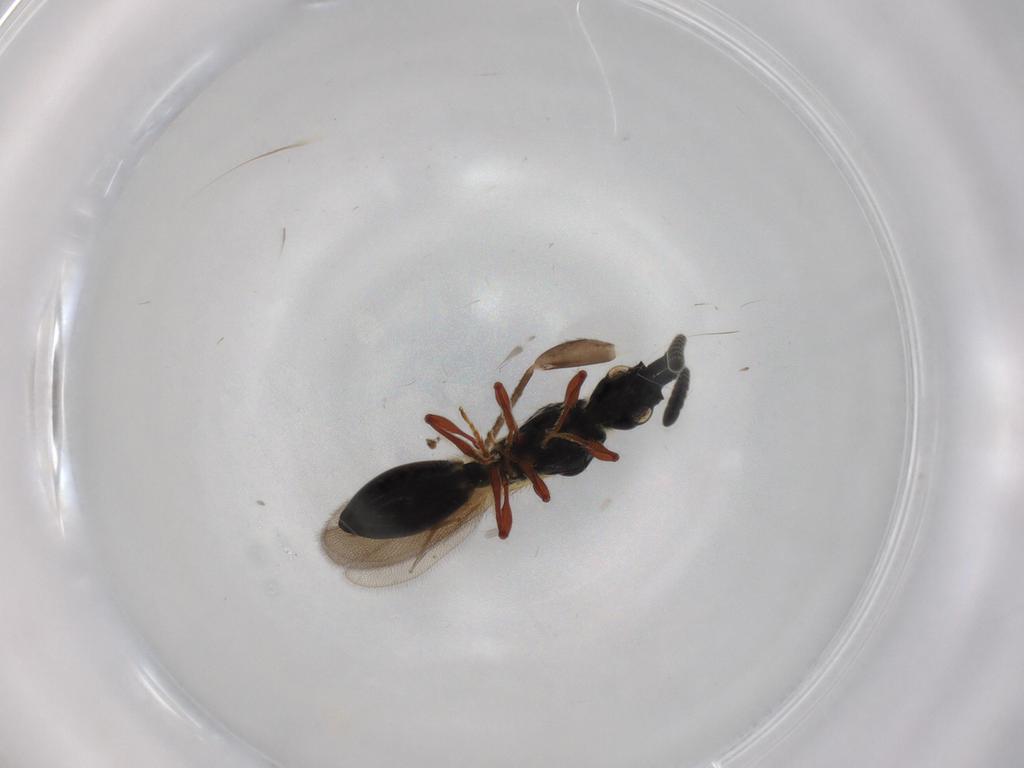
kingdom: Animalia
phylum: Arthropoda
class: Insecta
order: Hymenoptera
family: Diapriidae
